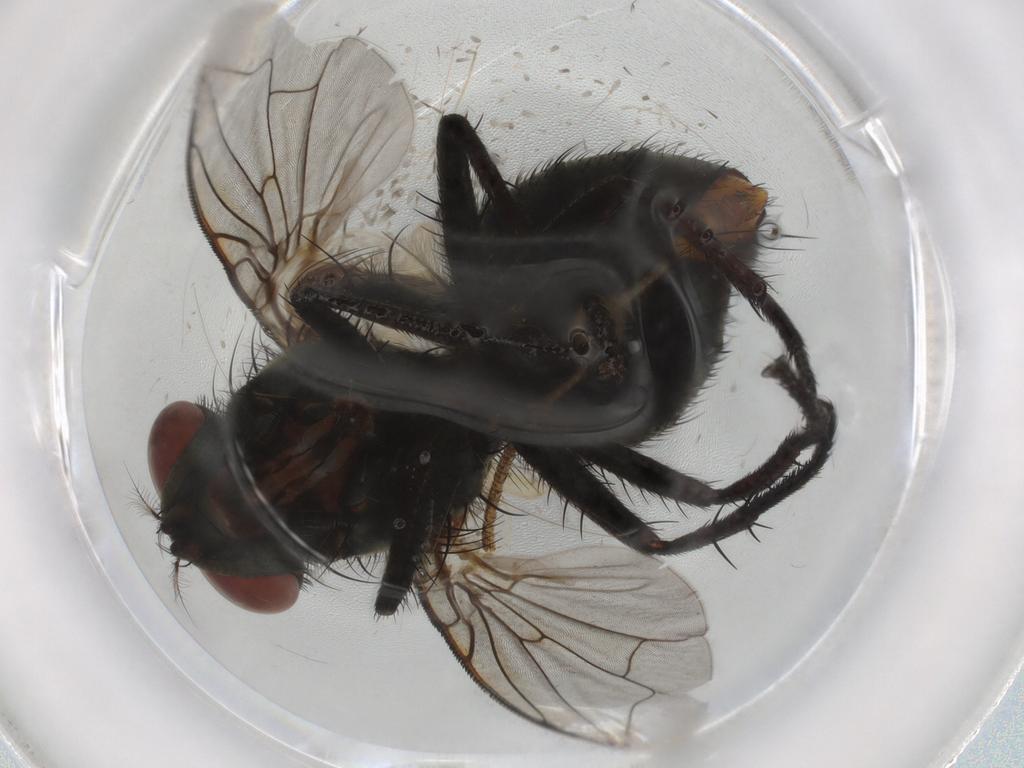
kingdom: Animalia
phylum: Arthropoda
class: Insecta
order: Diptera
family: Sarcophagidae
